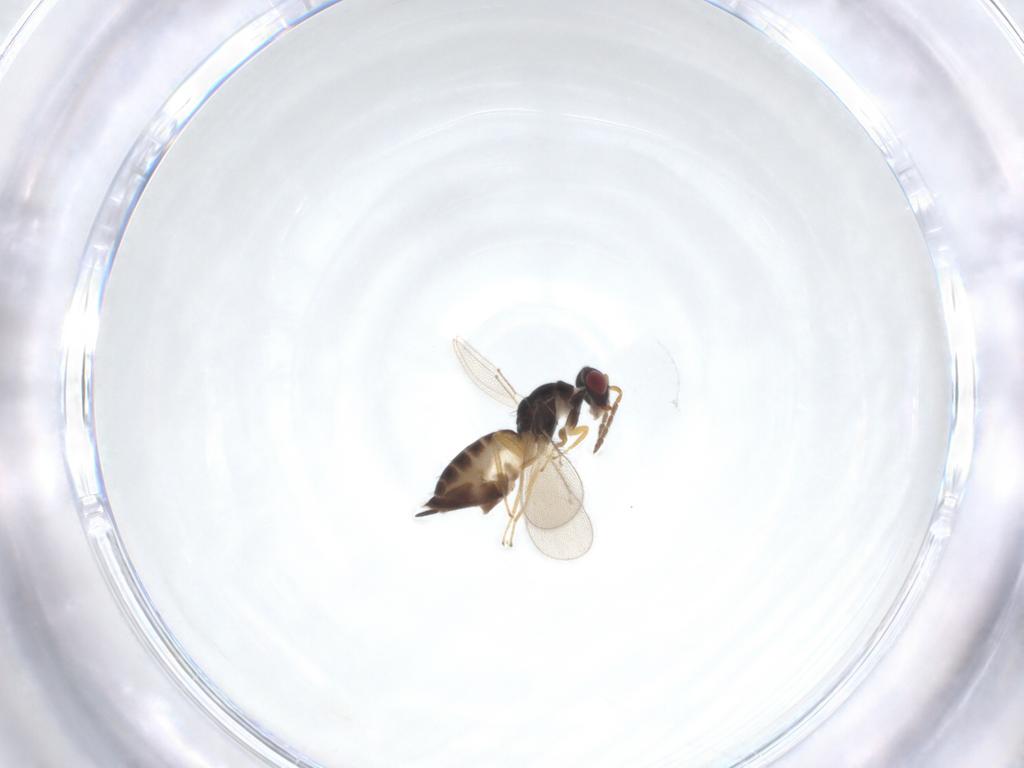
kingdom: Animalia
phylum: Arthropoda
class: Insecta
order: Hymenoptera
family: Eulophidae
